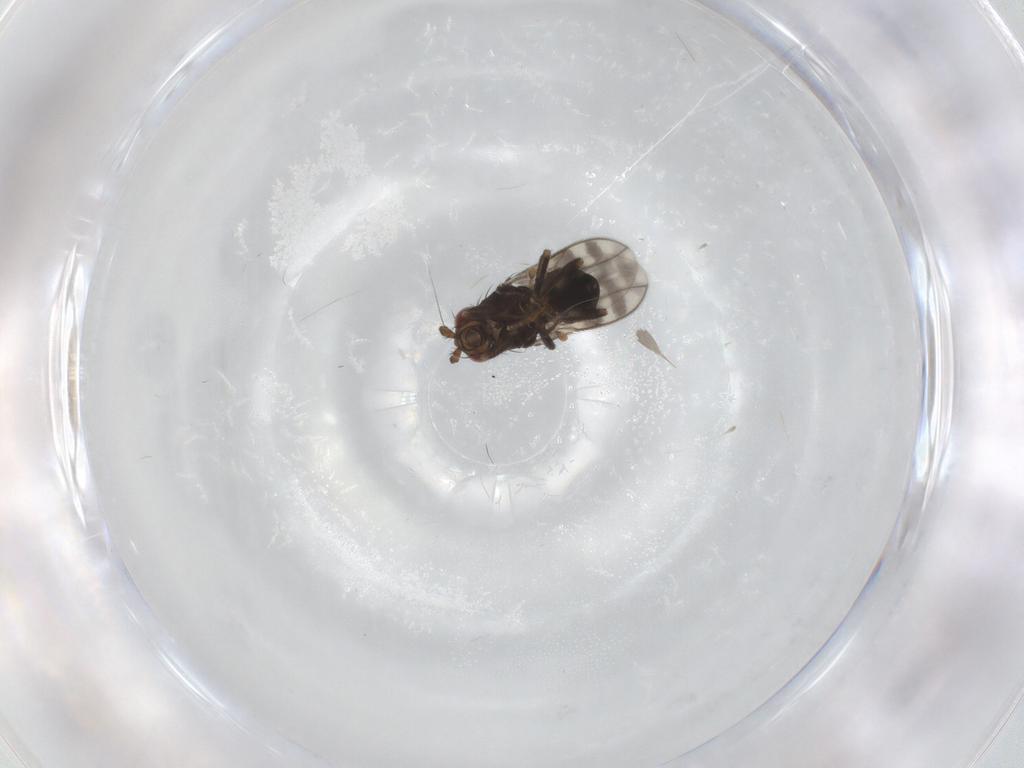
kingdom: Animalia
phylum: Arthropoda
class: Insecta
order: Diptera
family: Sphaeroceridae
